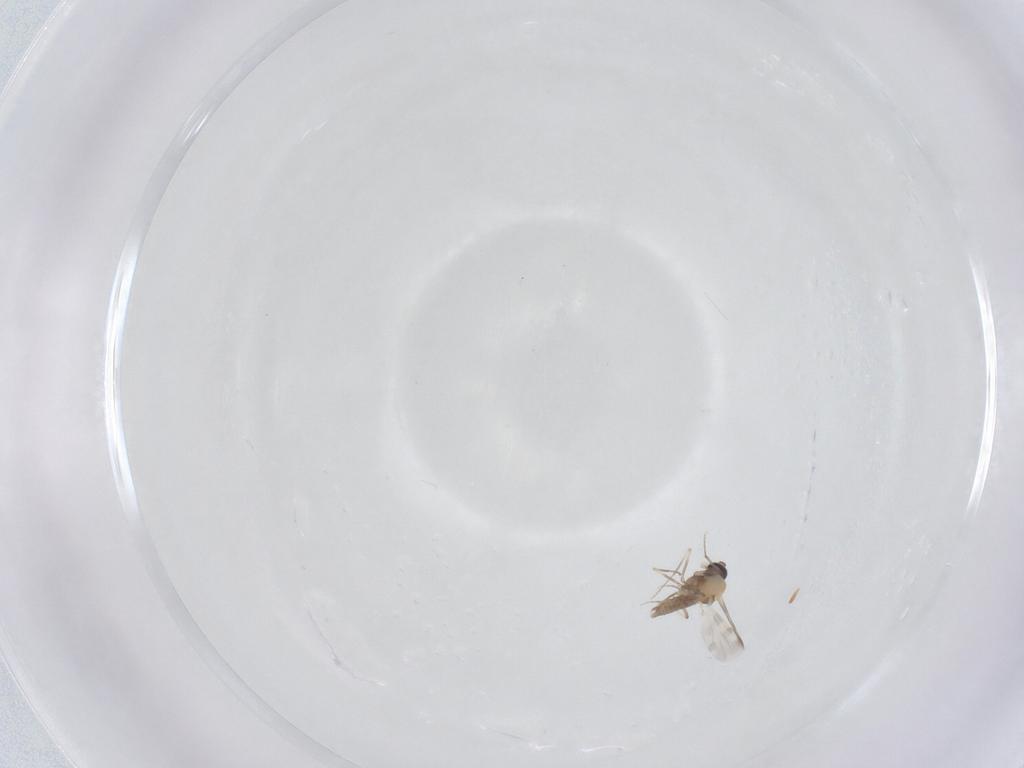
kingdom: Animalia
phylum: Arthropoda
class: Insecta
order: Diptera
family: Ceratopogonidae
